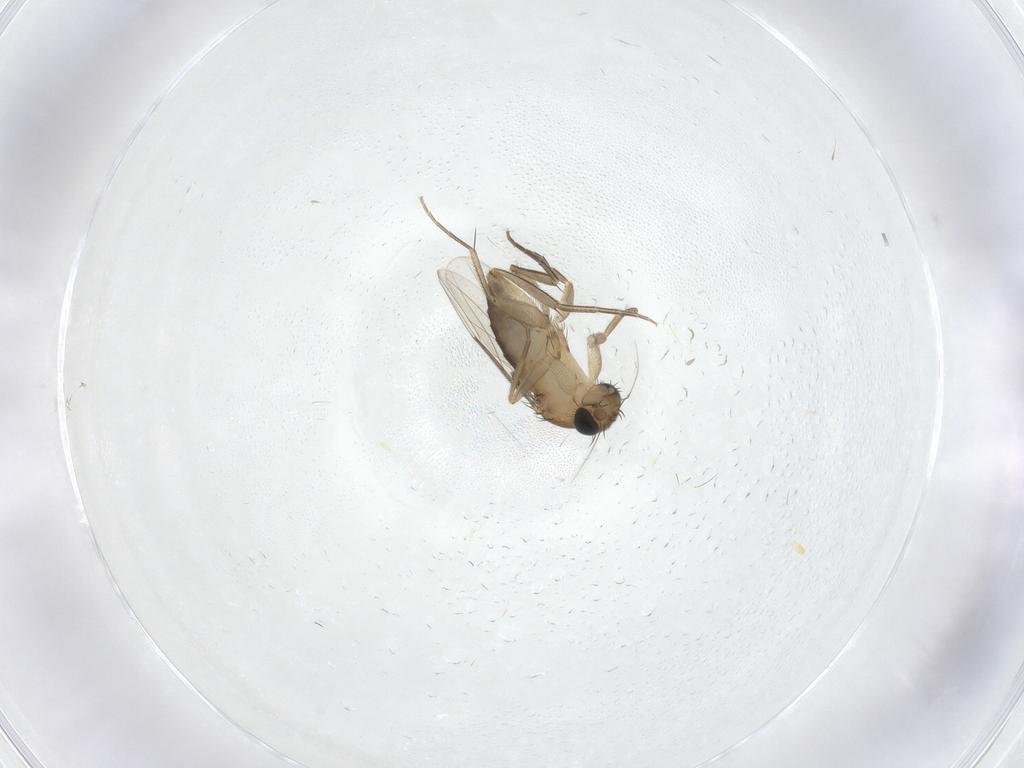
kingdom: Animalia
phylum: Arthropoda
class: Insecta
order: Diptera
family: Phoridae
